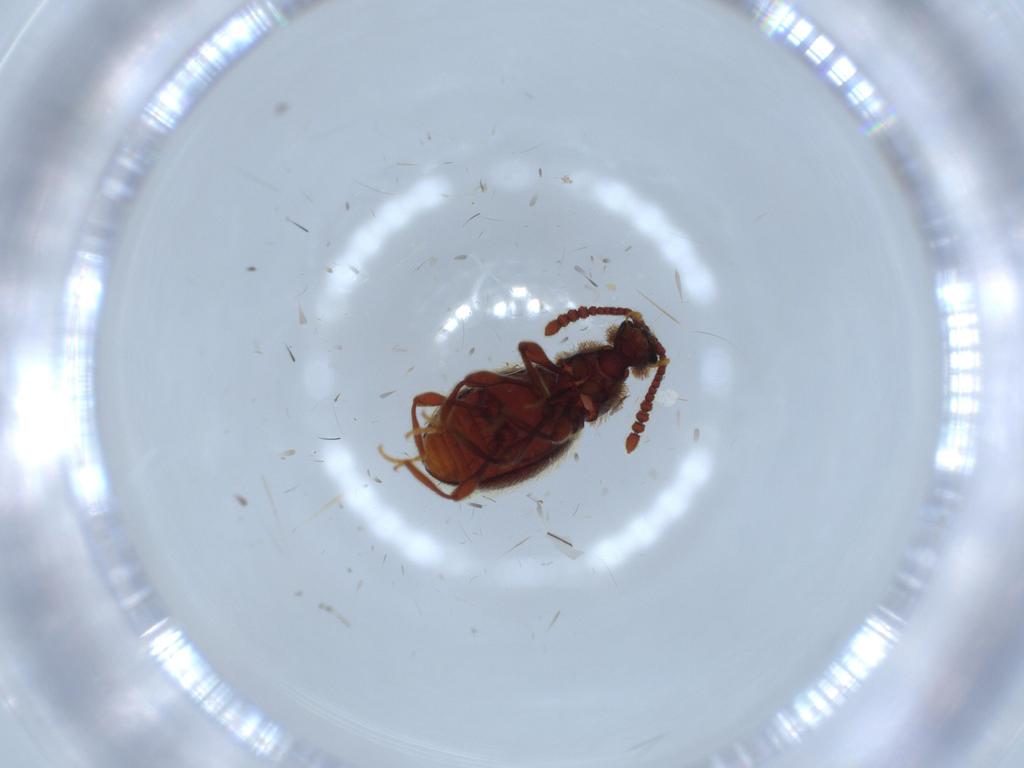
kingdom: Animalia
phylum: Arthropoda
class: Insecta
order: Coleoptera
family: Staphylinidae
